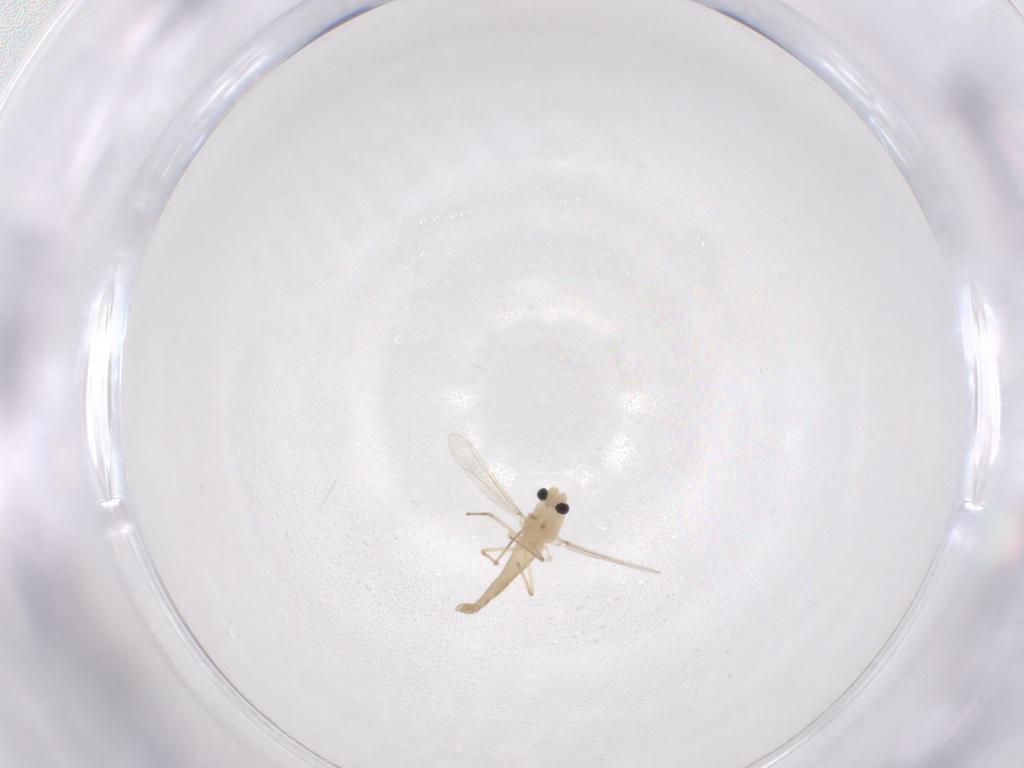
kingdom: Animalia
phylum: Arthropoda
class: Insecta
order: Diptera
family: Chironomidae
